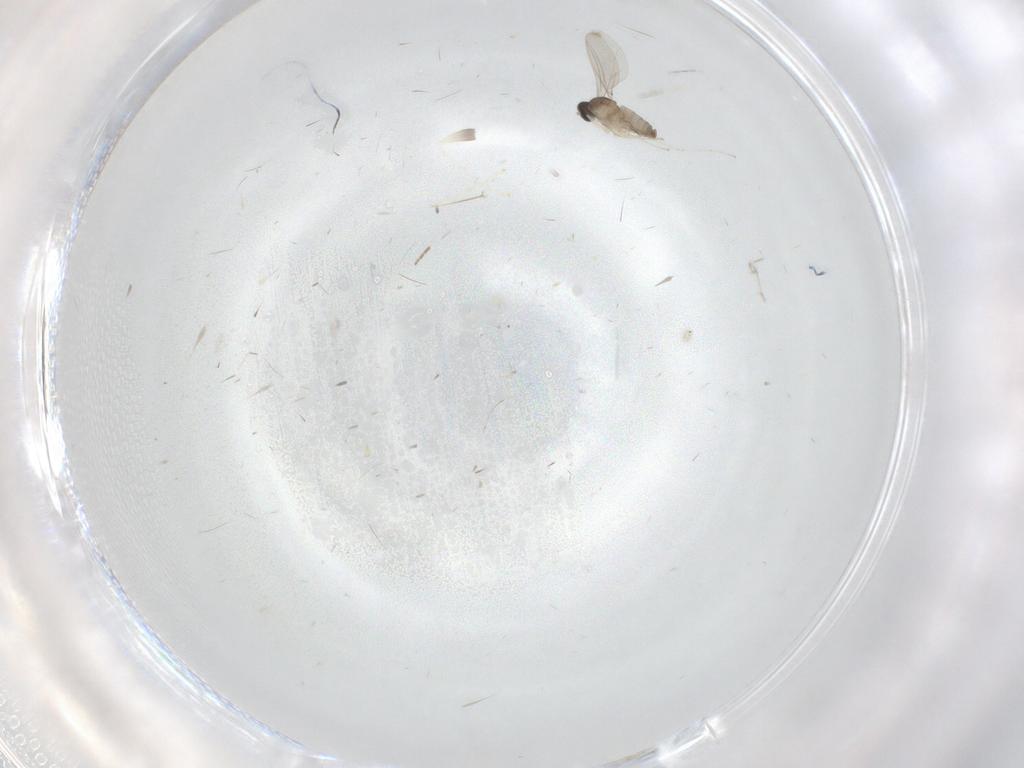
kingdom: Animalia
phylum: Arthropoda
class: Insecta
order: Diptera
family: Cecidomyiidae
